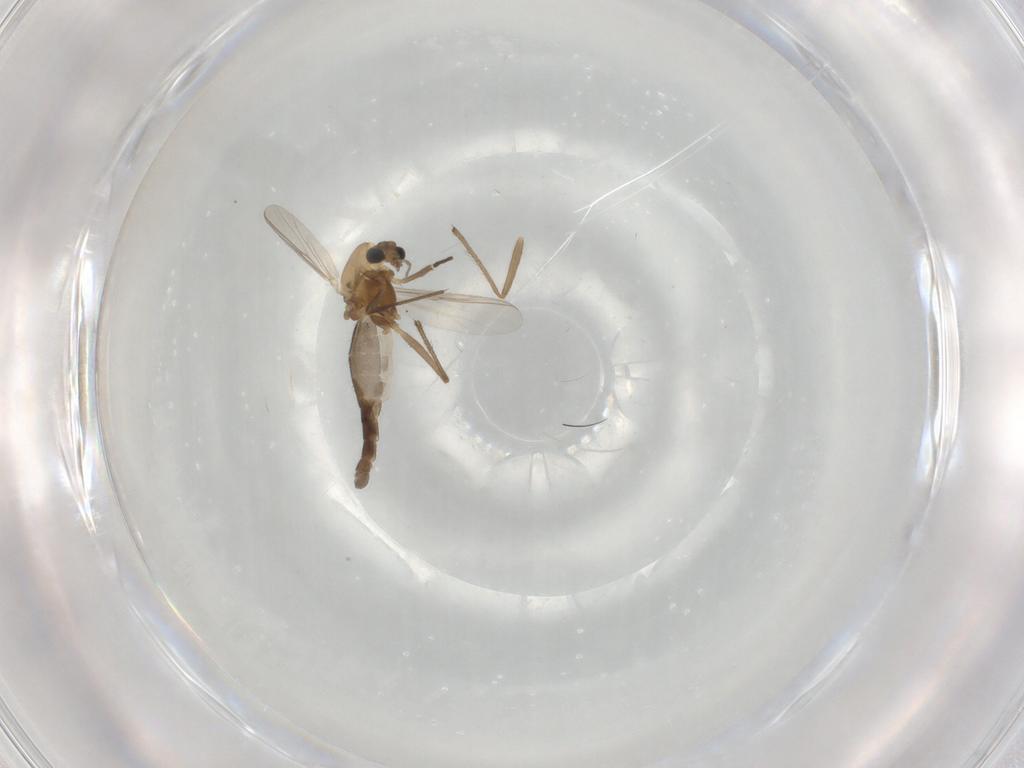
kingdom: Animalia
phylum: Arthropoda
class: Insecta
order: Diptera
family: Chironomidae
